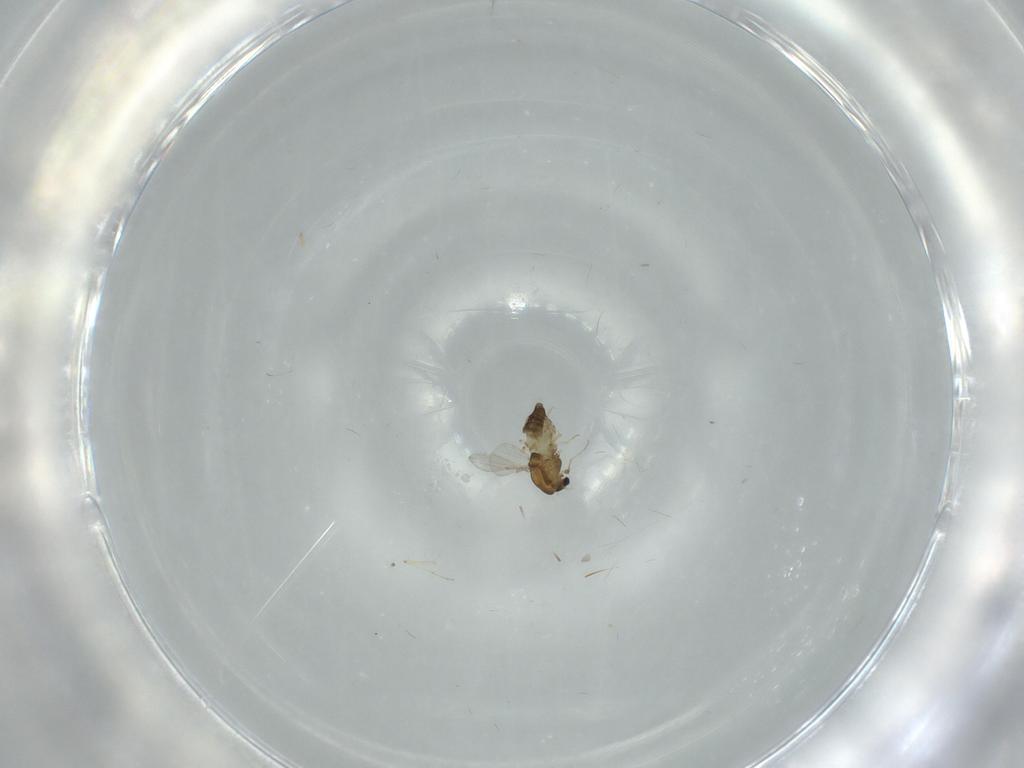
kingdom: Animalia
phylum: Arthropoda
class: Insecta
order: Diptera
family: Chironomidae
